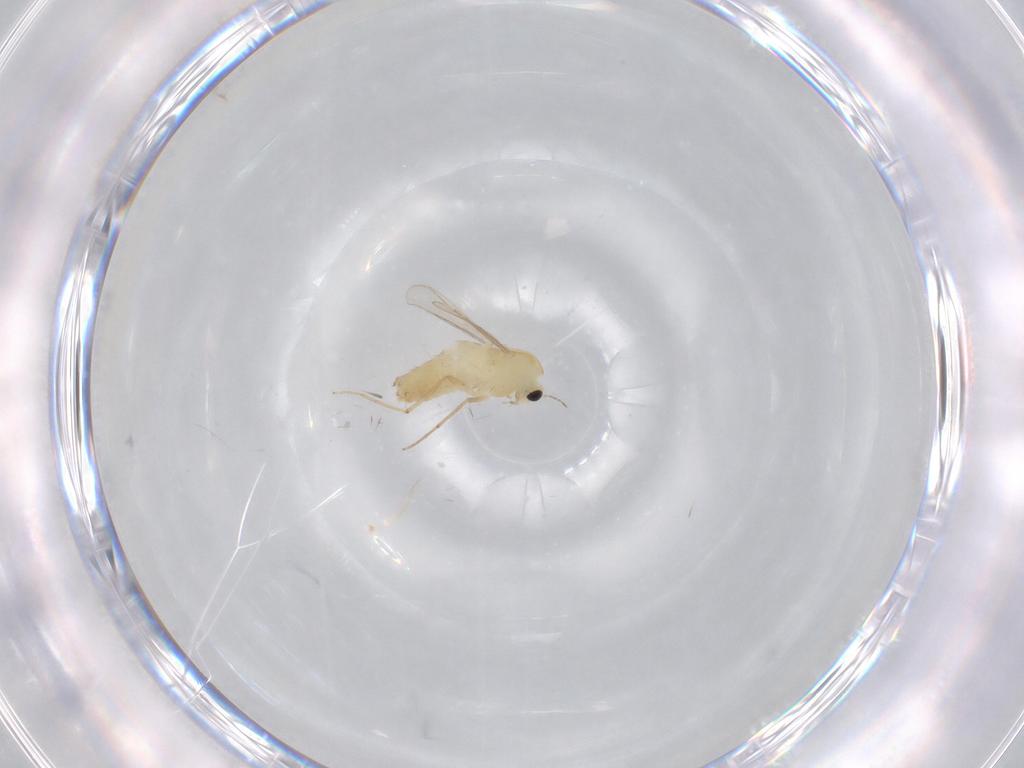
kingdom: Animalia
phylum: Arthropoda
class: Insecta
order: Diptera
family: Chironomidae
